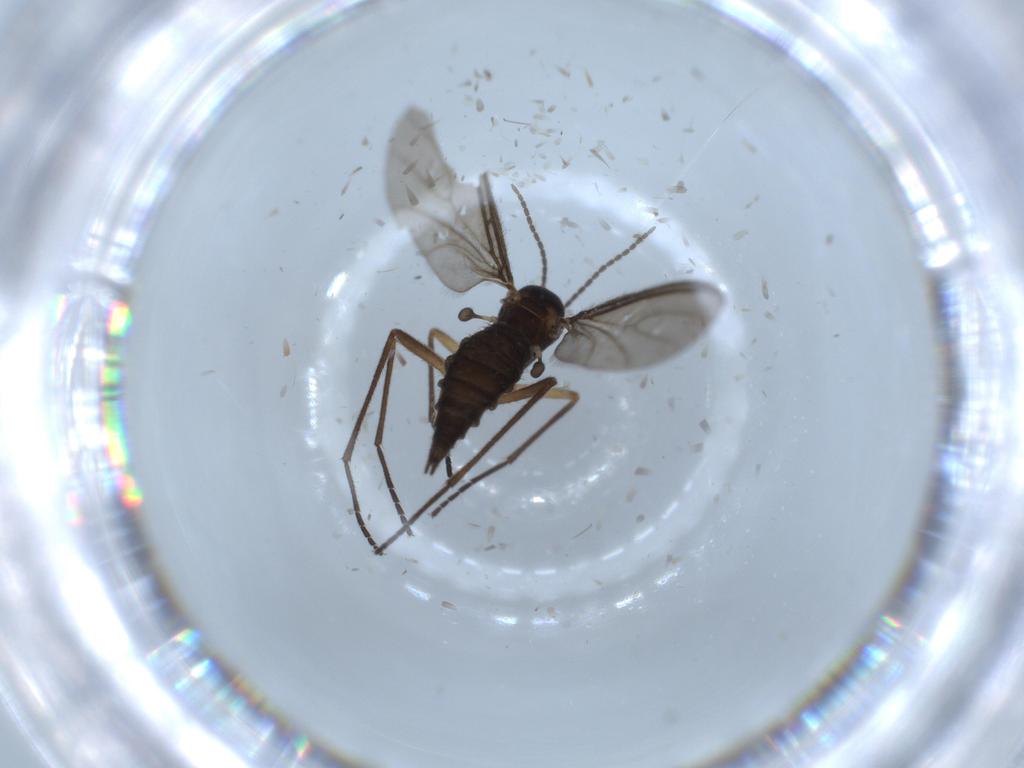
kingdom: Animalia
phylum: Arthropoda
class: Insecta
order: Diptera
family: Sciaridae
